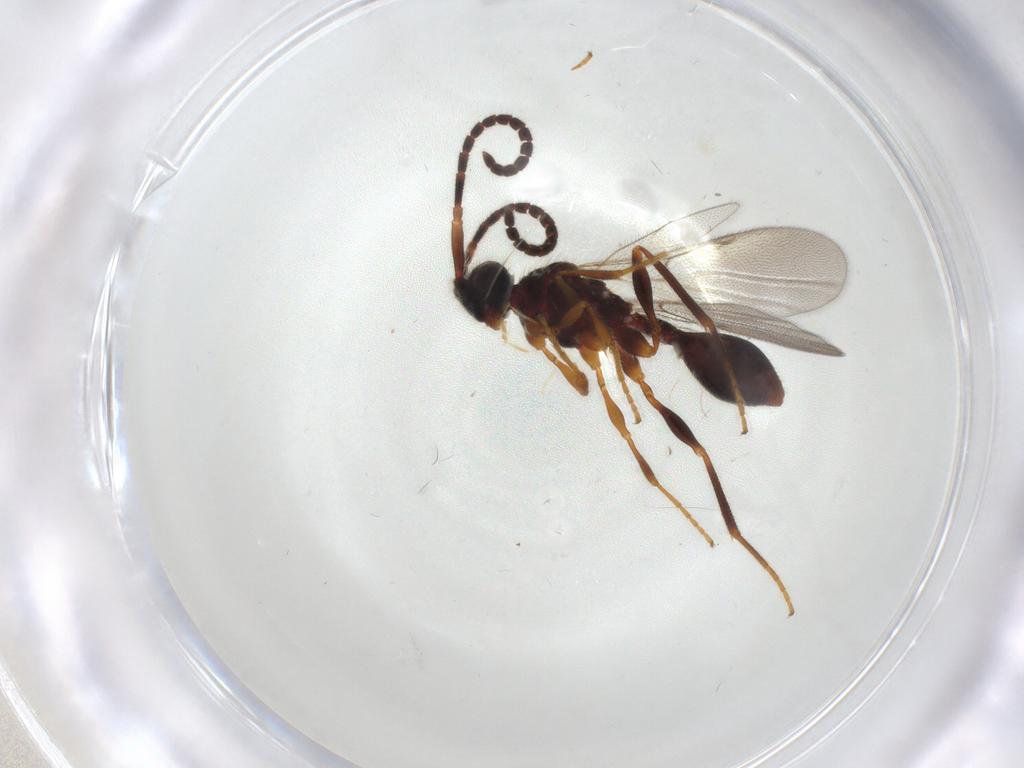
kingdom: Animalia
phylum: Arthropoda
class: Insecta
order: Hymenoptera
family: Diapriidae
